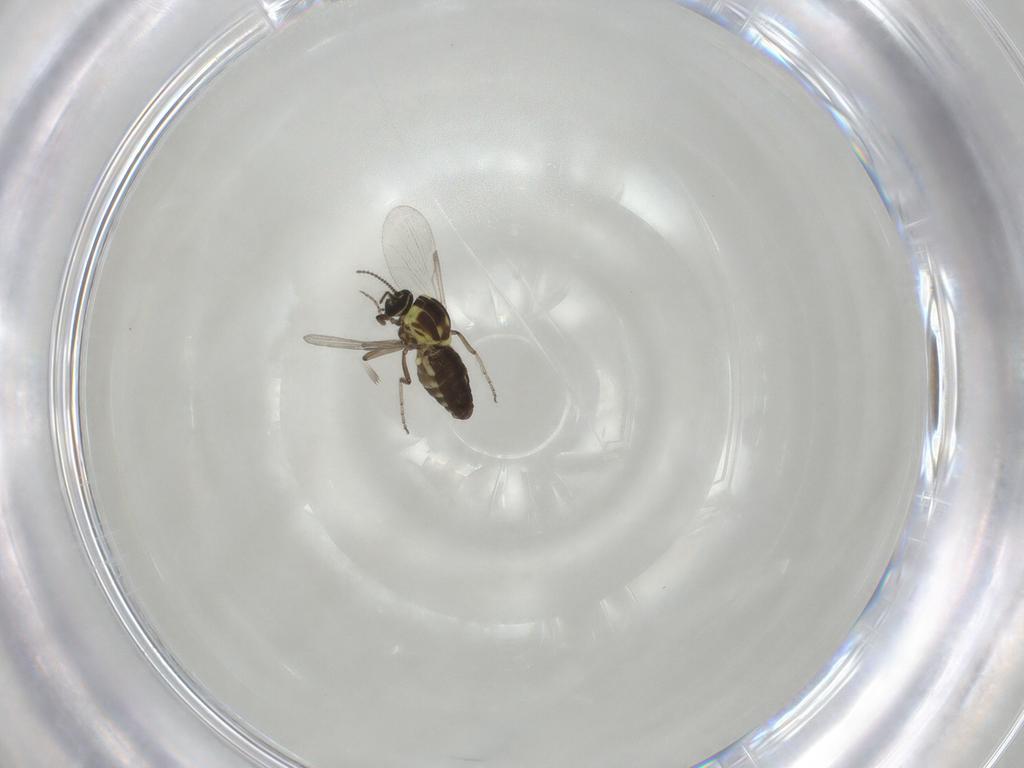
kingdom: Animalia
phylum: Arthropoda
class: Insecta
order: Diptera
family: Ceratopogonidae
